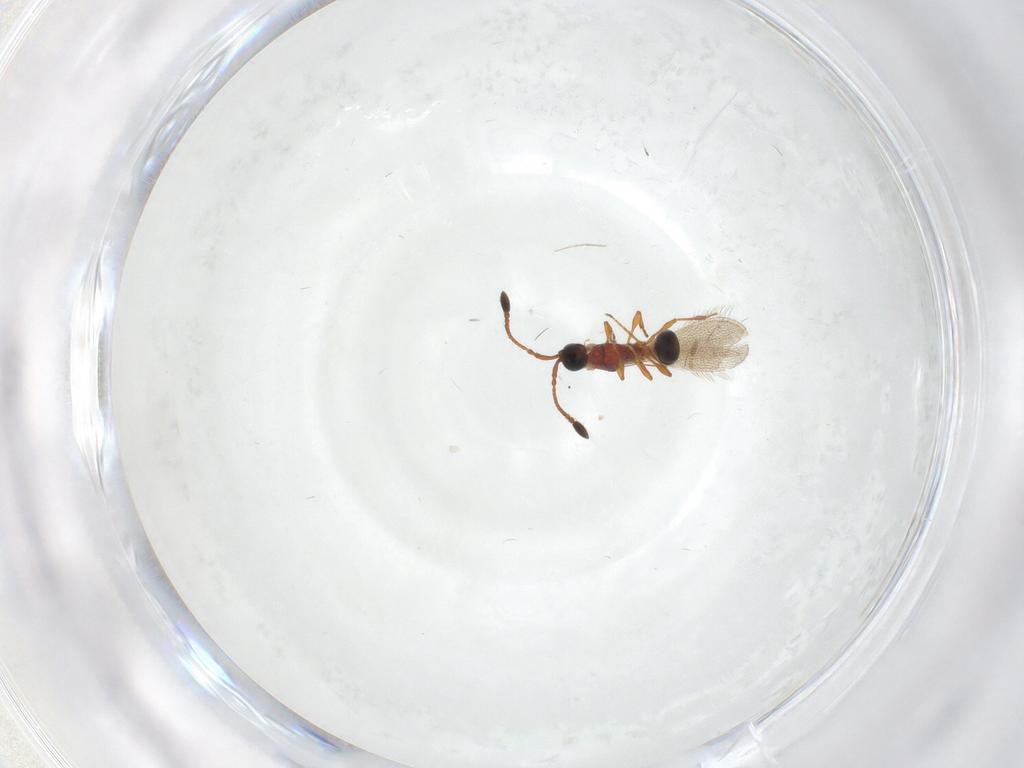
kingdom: Animalia
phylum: Arthropoda
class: Insecta
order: Hymenoptera
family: Diapriidae
